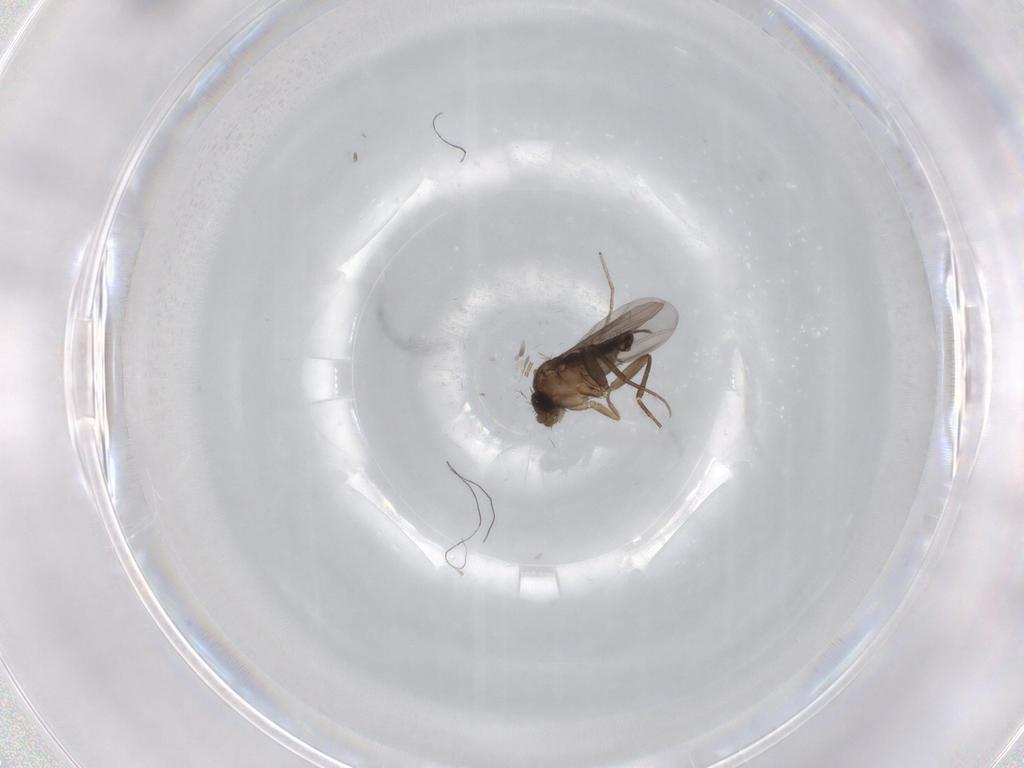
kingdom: Animalia
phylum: Arthropoda
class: Insecta
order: Diptera
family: Phoridae
